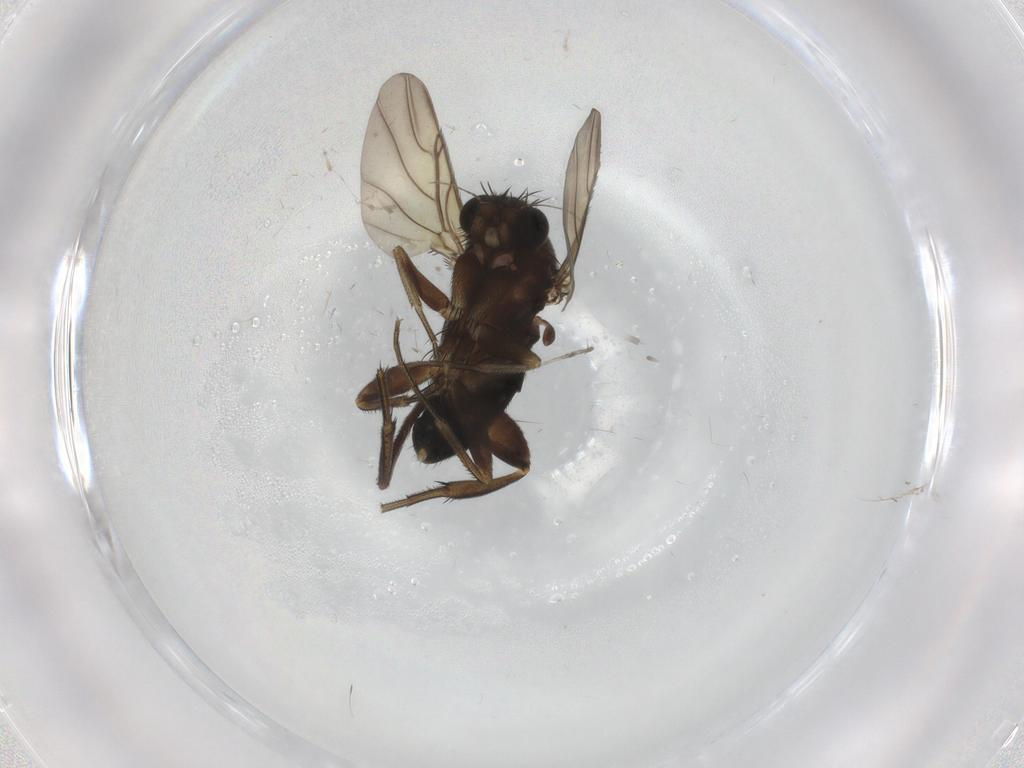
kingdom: Animalia
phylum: Arthropoda
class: Insecta
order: Diptera
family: Phoridae
